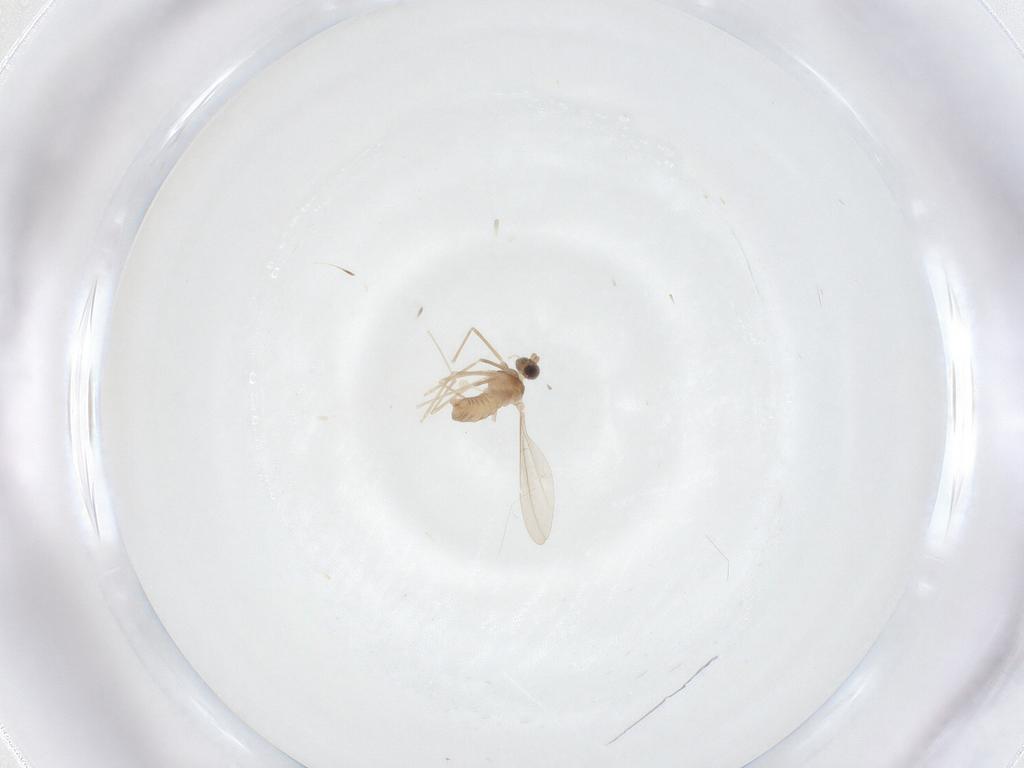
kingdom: Animalia
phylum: Arthropoda
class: Insecta
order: Diptera
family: Cecidomyiidae
